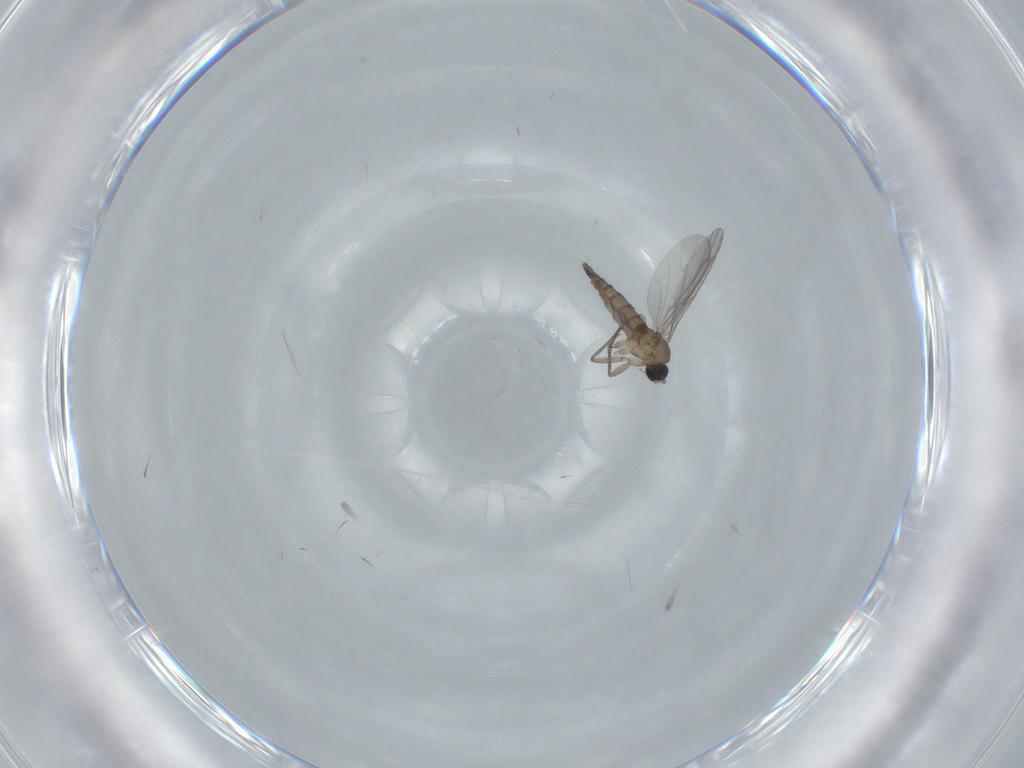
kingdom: Animalia
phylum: Arthropoda
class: Insecta
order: Diptera
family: Sciaridae
